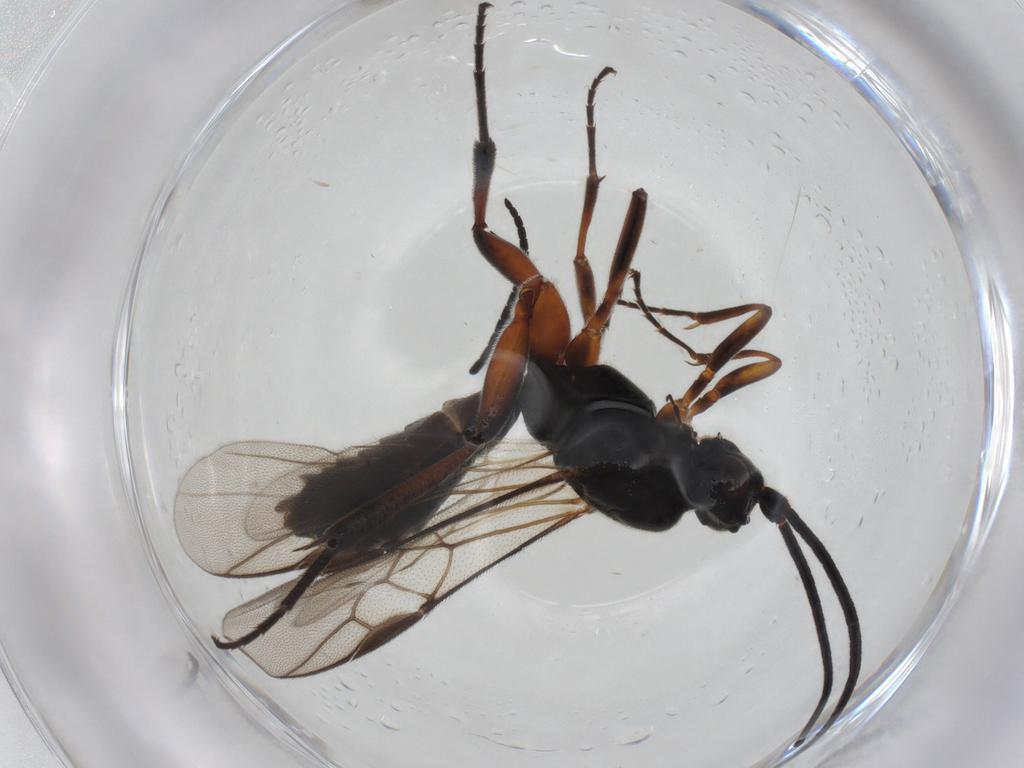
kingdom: Animalia
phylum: Arthropoda
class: Insecta
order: Hymenoptera
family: Braconidae
